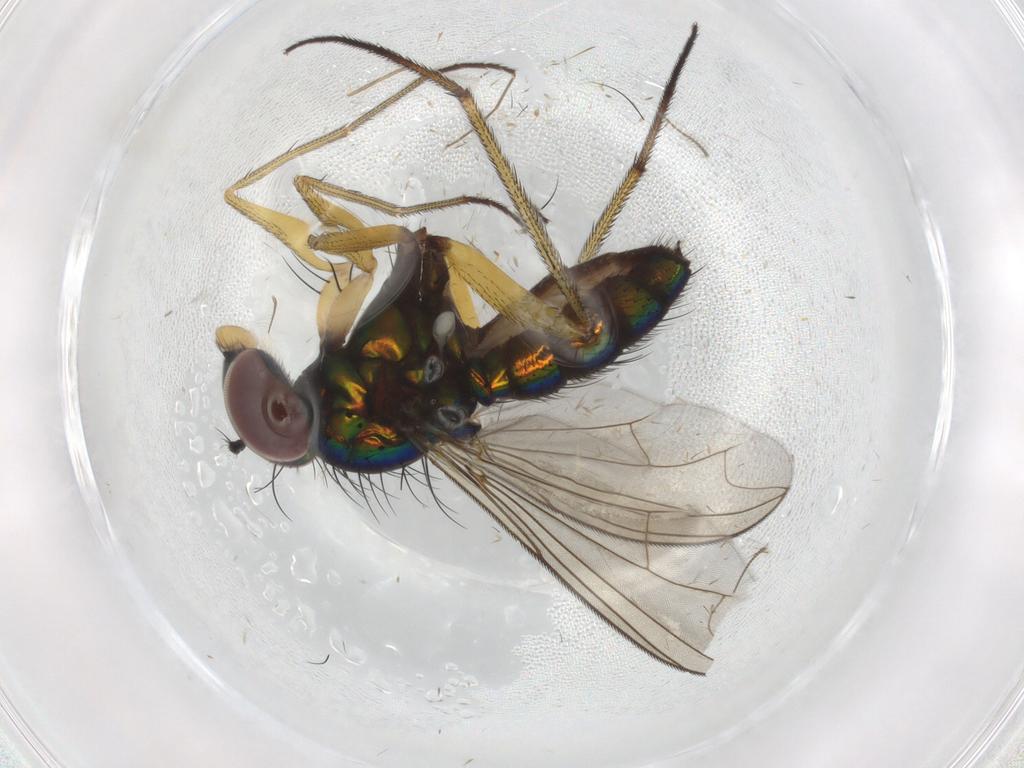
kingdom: Animalia
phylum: Arthropoda
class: Insecta
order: Diptera
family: Dolichopodidae
